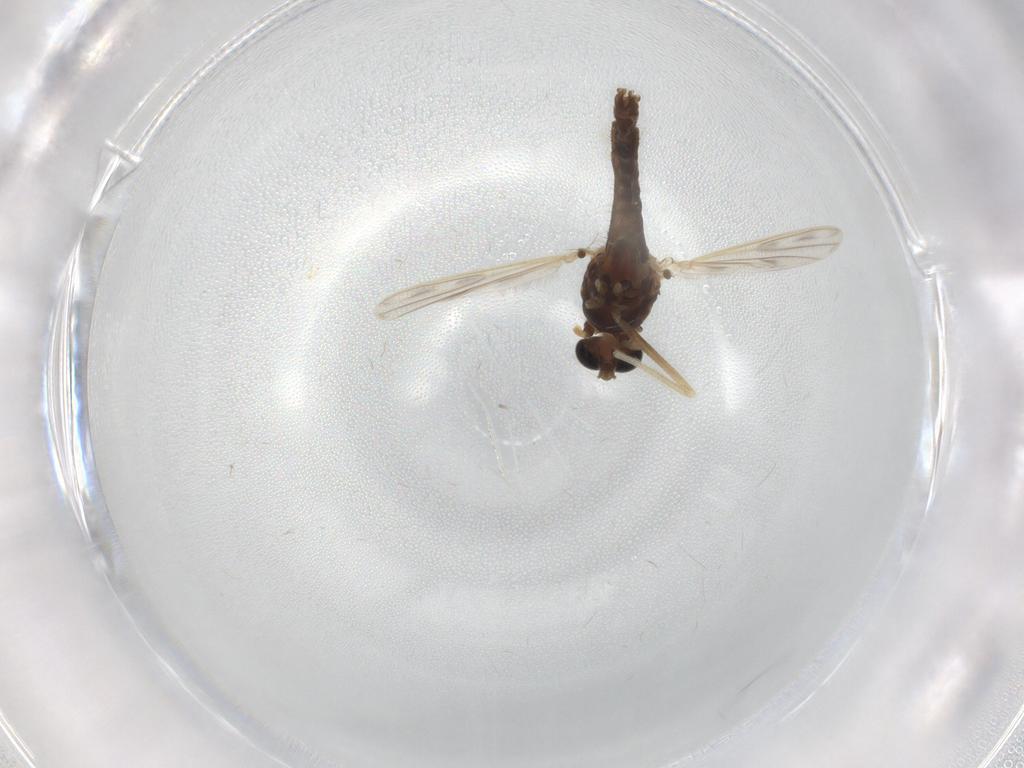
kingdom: Animalia
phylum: Arthropoda
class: Insecta
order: Diptera
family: Chironomidae
